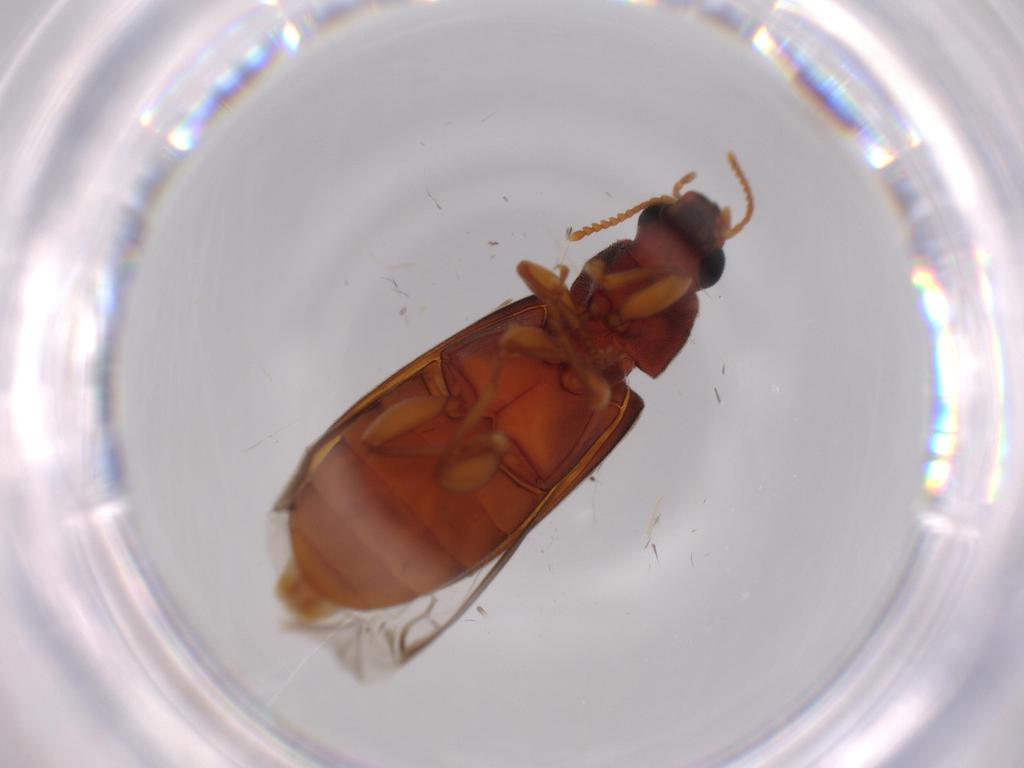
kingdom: Animalia
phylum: Arthropoda
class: Insecta
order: Coleoptera
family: Mycteridae
